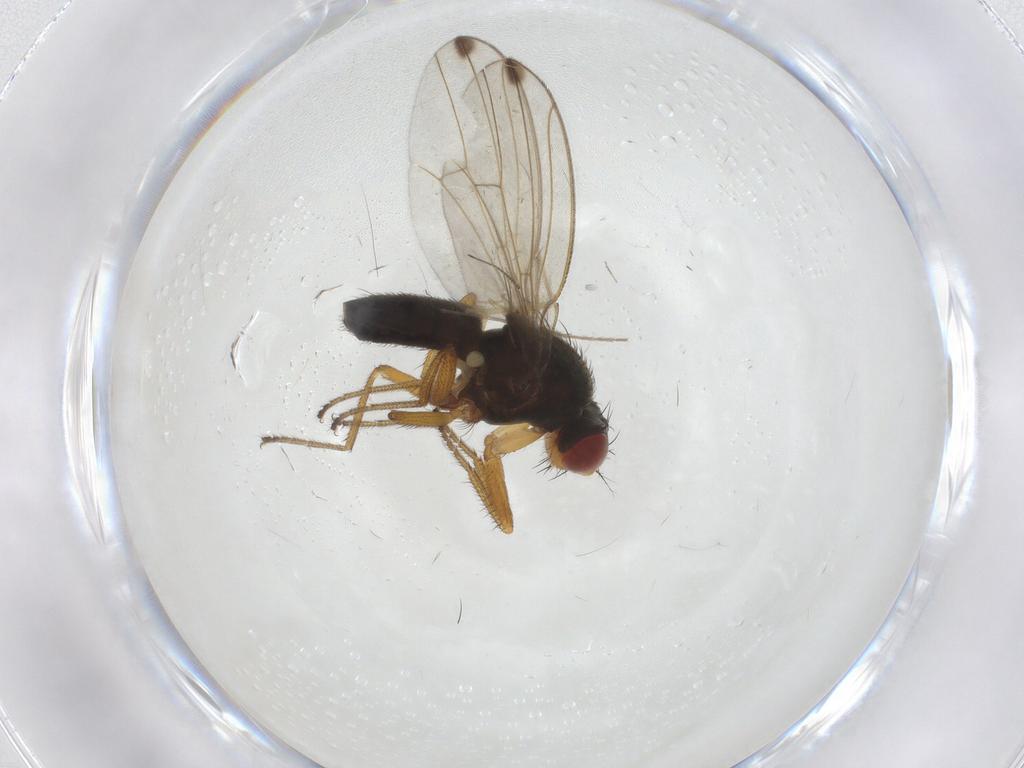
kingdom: Animalia
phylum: Arthropoda
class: Insecta
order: Diptera
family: Drosophilidae
